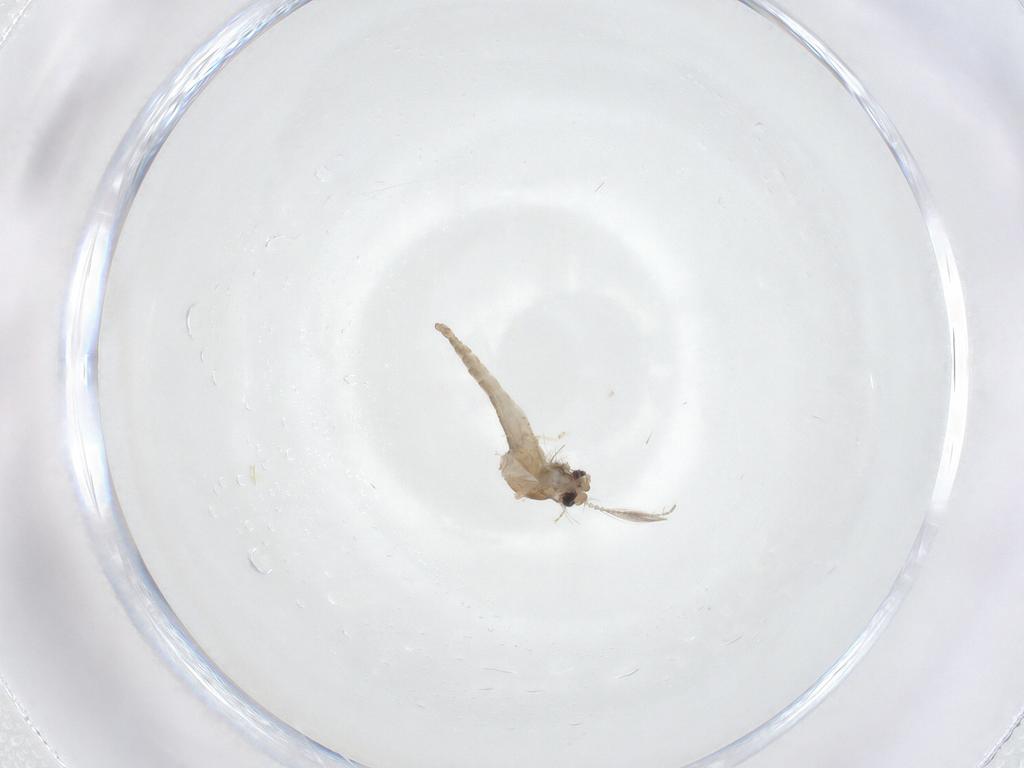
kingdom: Animalia
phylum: Arthropoda
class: Insecta
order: Diptera
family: Ceratopogonidae
